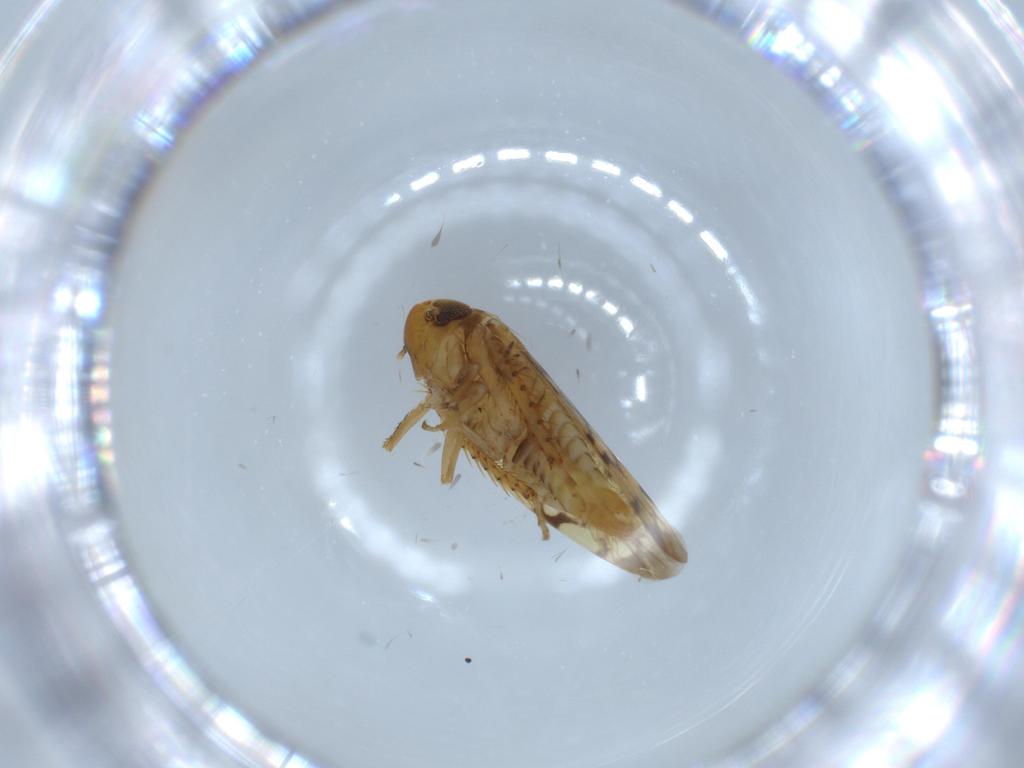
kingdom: Animalia
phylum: Arthropoda
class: Insecta
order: Hemiptera
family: Cicadellidae
